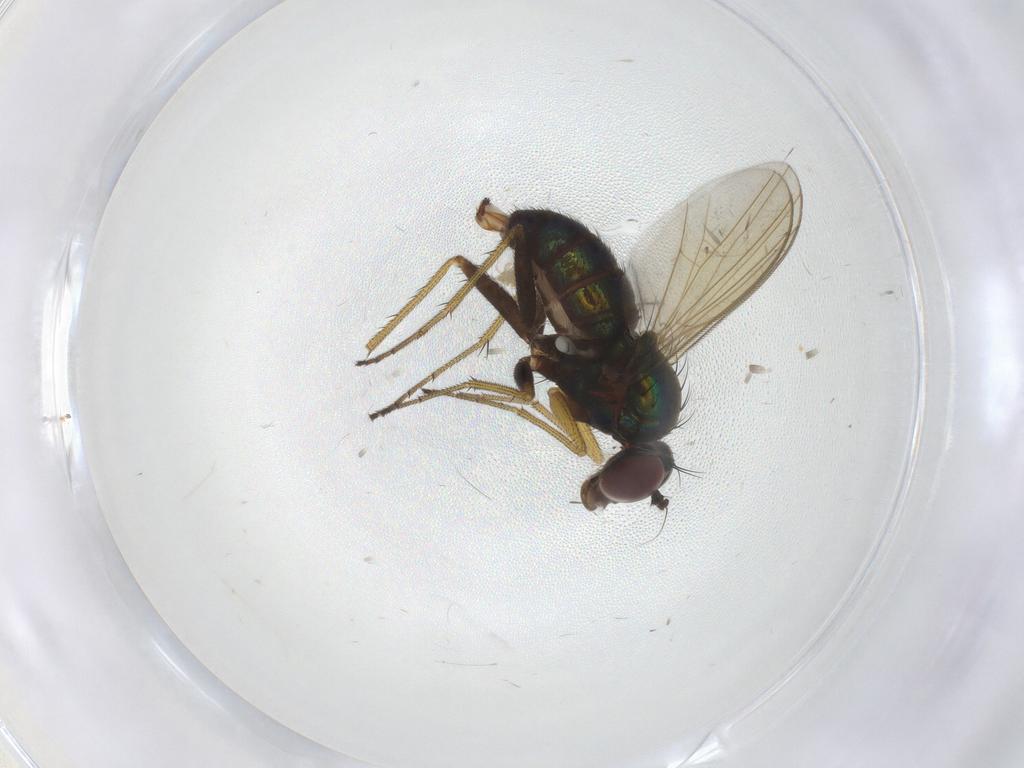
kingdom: Animalia
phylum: Arthropoda
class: Insecta
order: Diptera
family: Dolichopodidae
